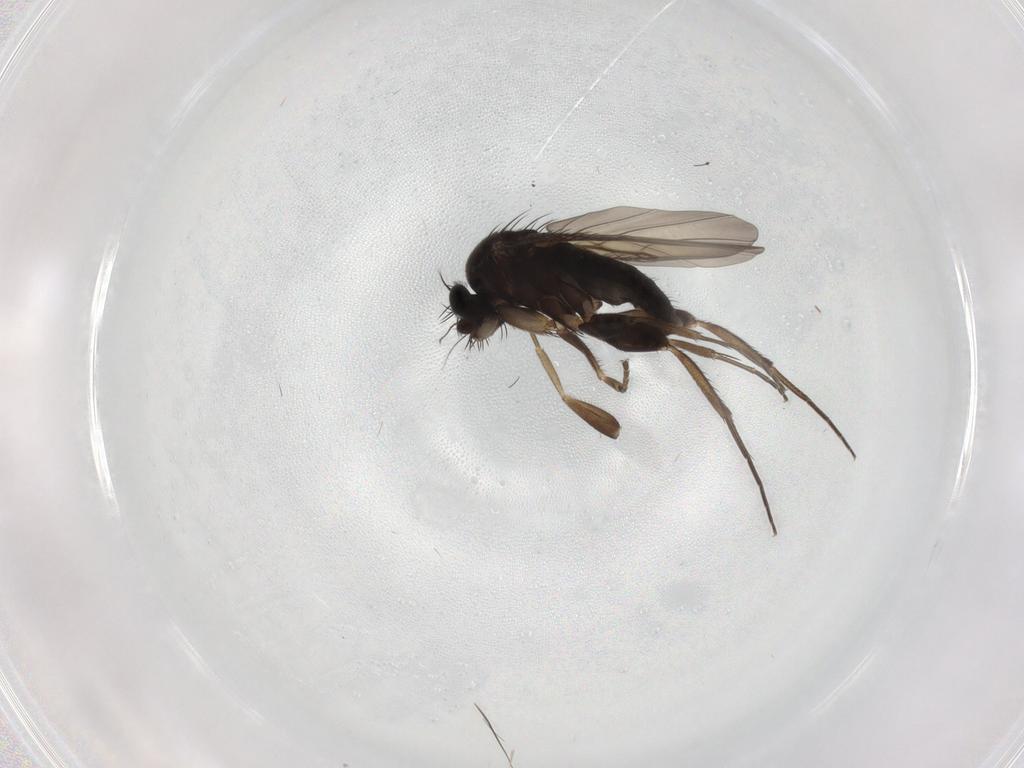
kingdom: Animalia
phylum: Arthropoda
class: Insecta
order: Diptera
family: Phoridae
